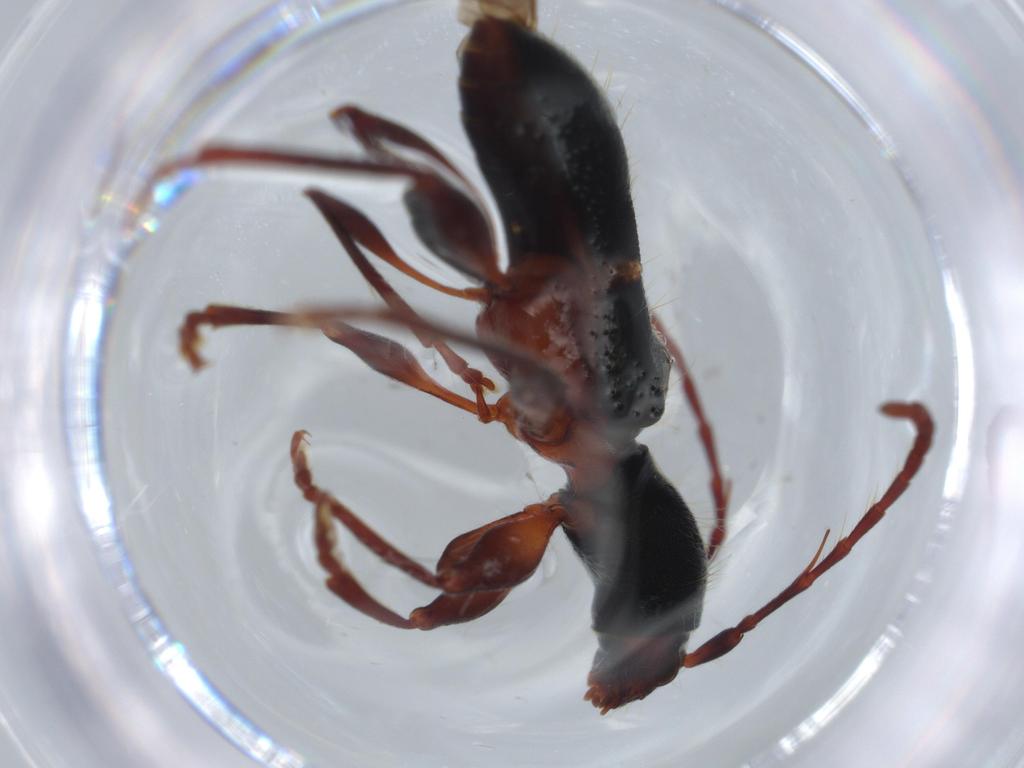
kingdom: Animalia
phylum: Arthropoda
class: Insecta
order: Coleoptera
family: Cerambycidae
